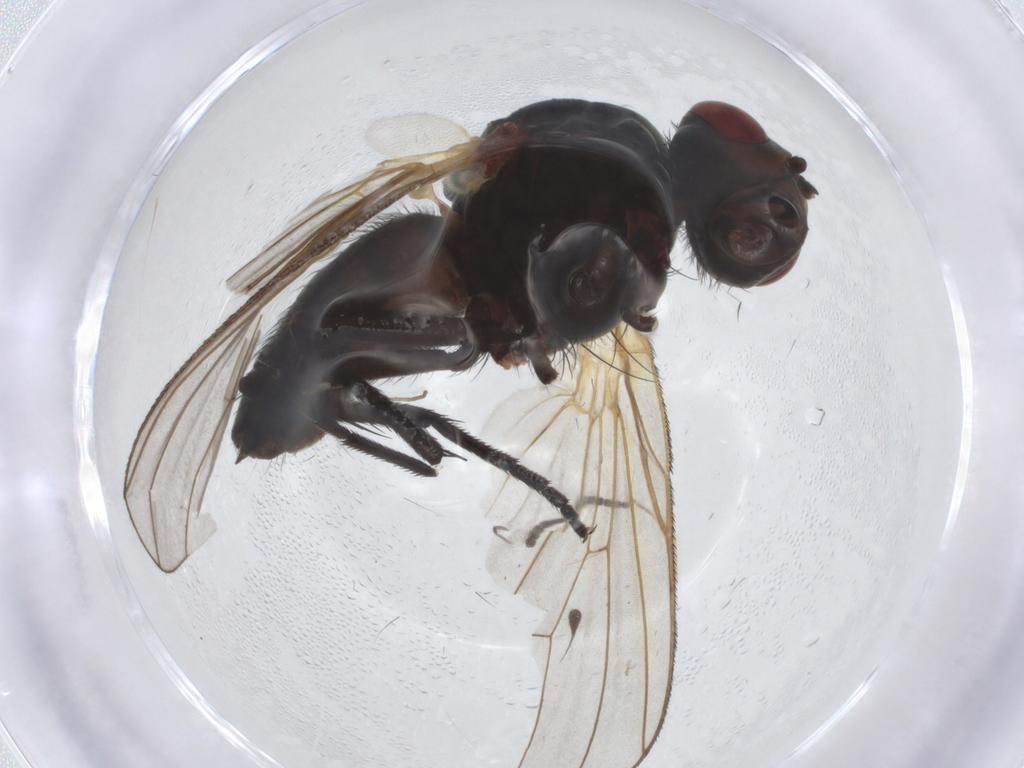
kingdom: Animalia
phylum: Arthropoda
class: Insecta
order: Diptera
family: Anthomyiidae
